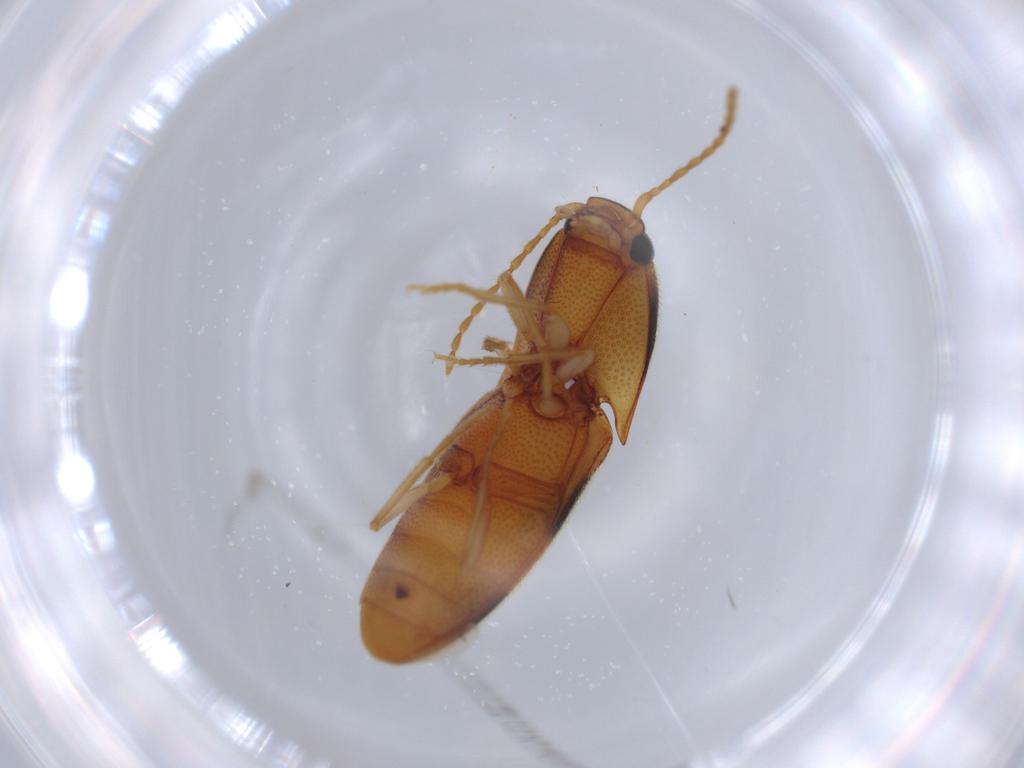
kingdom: Animalia
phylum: Arthropoda
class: Insecta
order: Coleoptera
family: Elateridae
